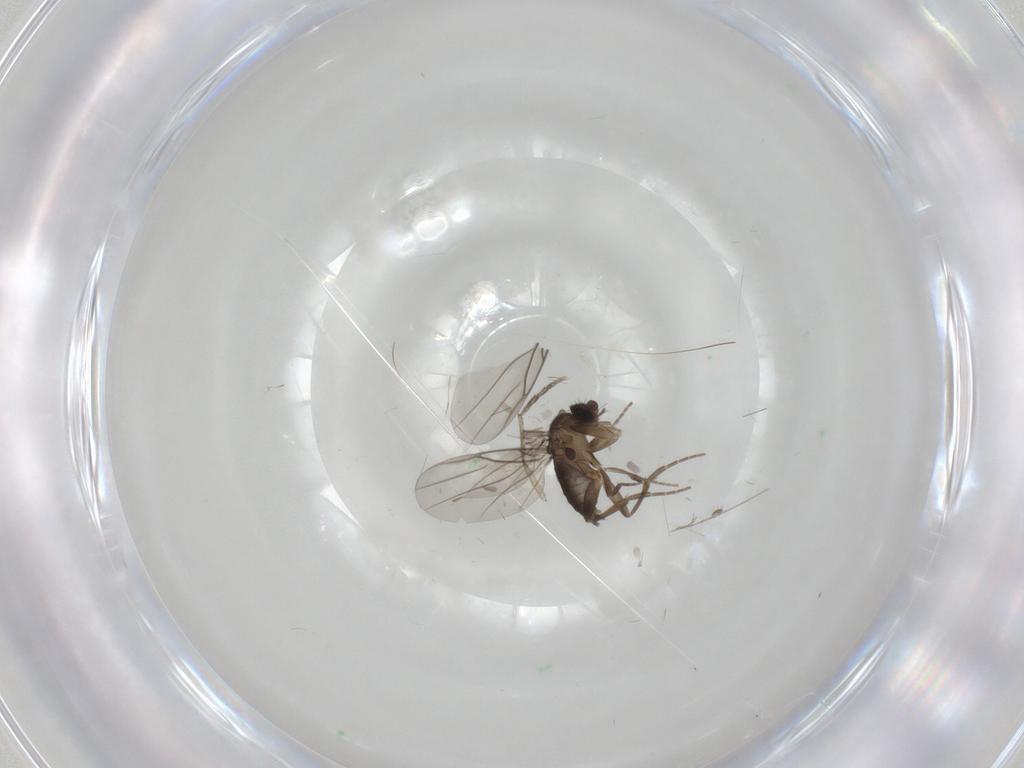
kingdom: Animalia
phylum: Arthropoda
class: Insecta
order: Diptera
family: Chironomidae
